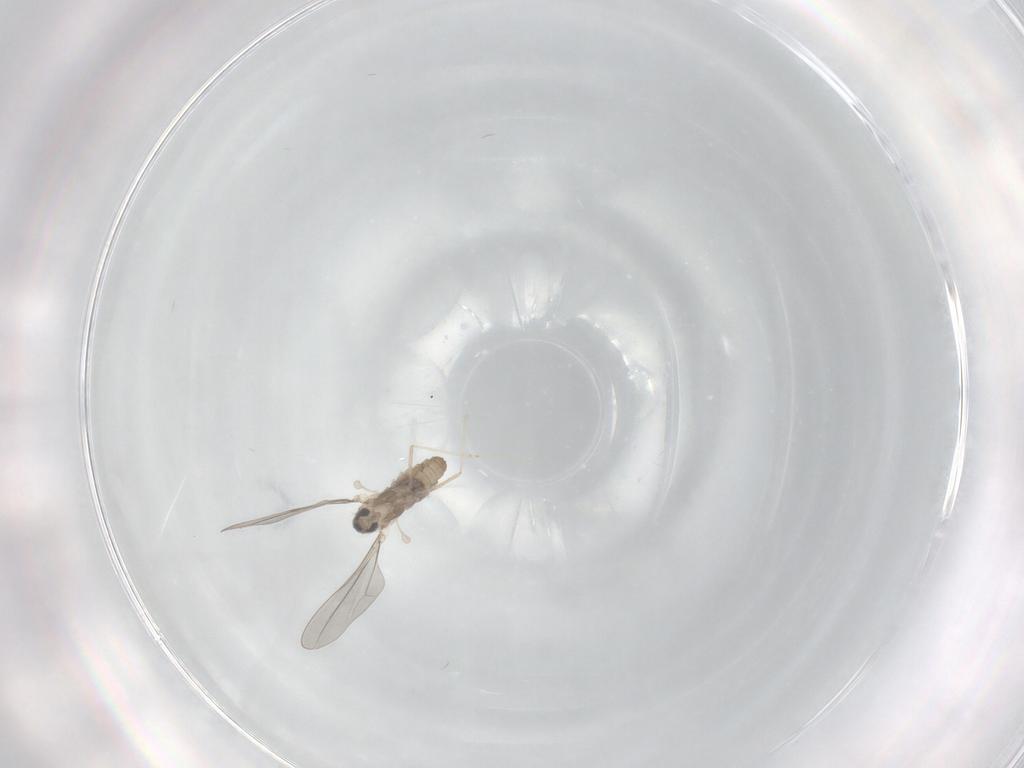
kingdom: Animalia
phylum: Arthropoda
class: Insecta
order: Diptera
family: Cecidomyiidae
